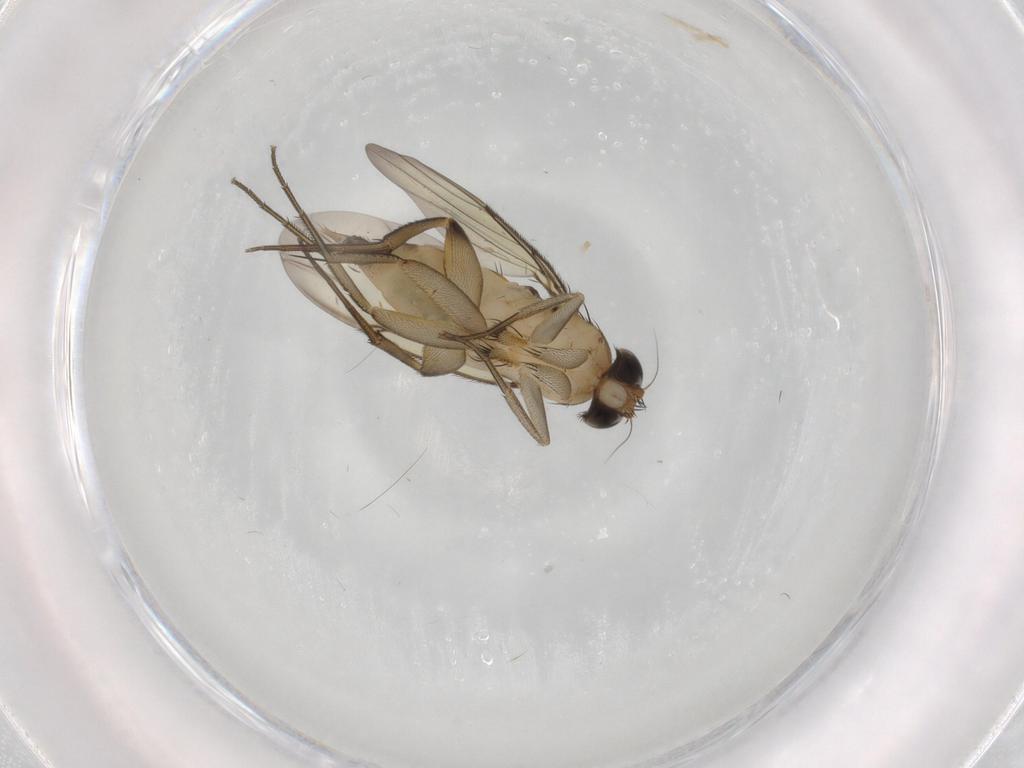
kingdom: Animalia
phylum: Arthropoda
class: Insecta
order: Diptera
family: Phoridae
